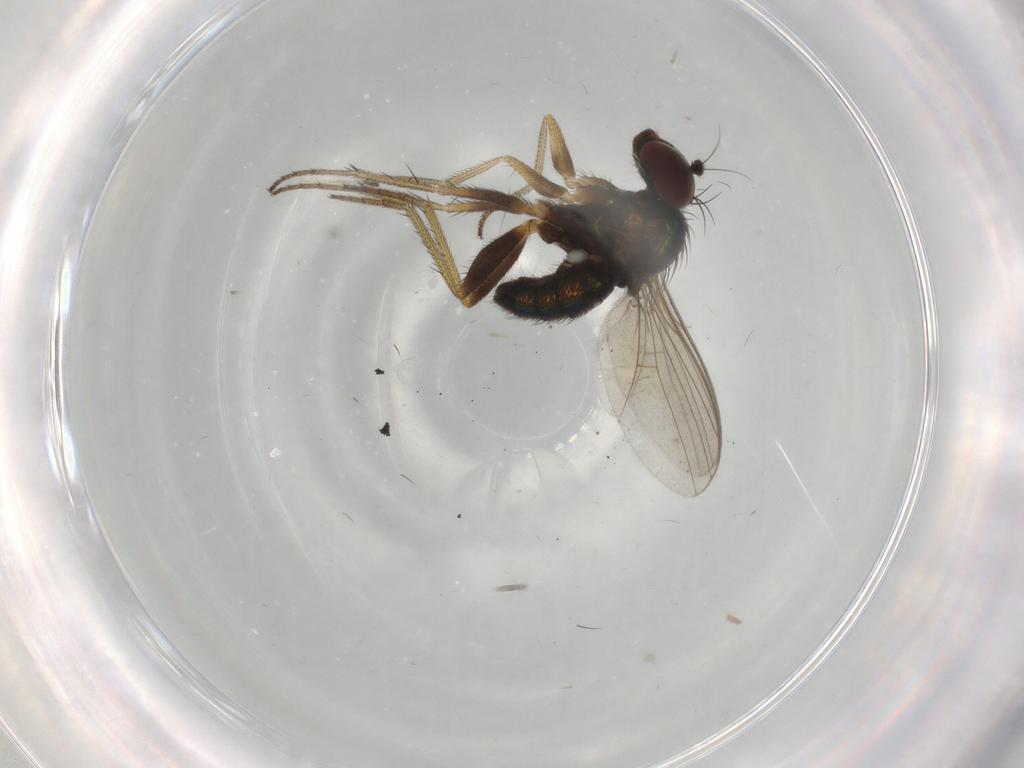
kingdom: Animalia
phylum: Arthropoda
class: Insecta
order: Diptera
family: Chironomidae
